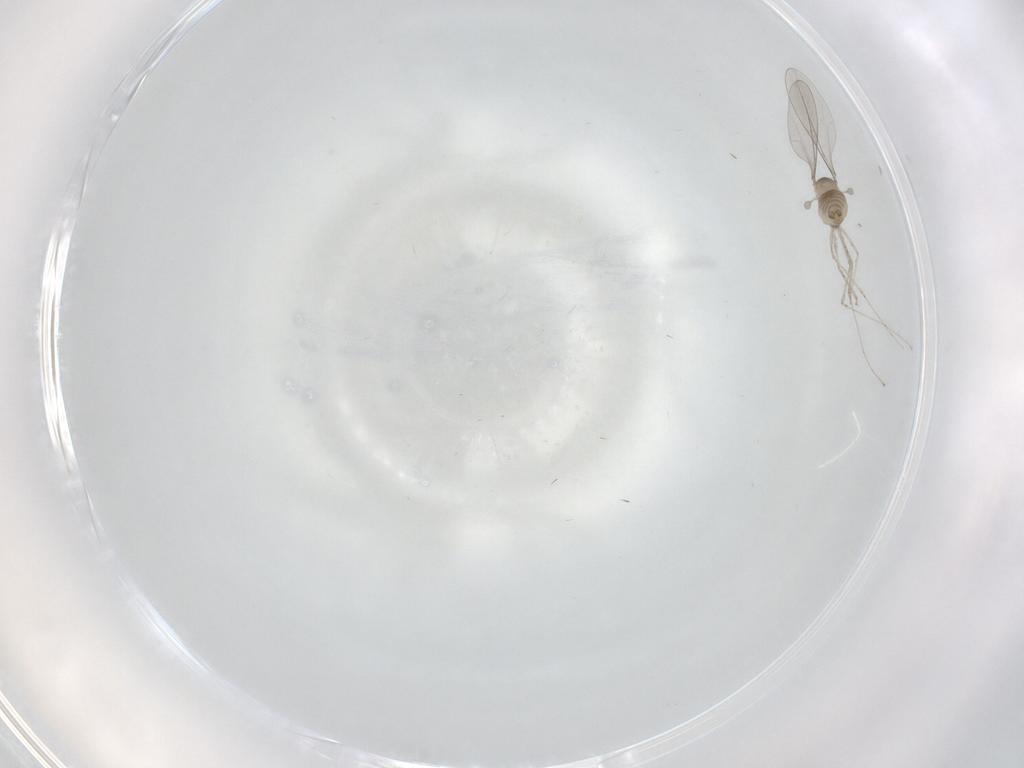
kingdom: Animalia
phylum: Arthropoda
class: Insecta
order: Diptera
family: Cecidomyiidae
